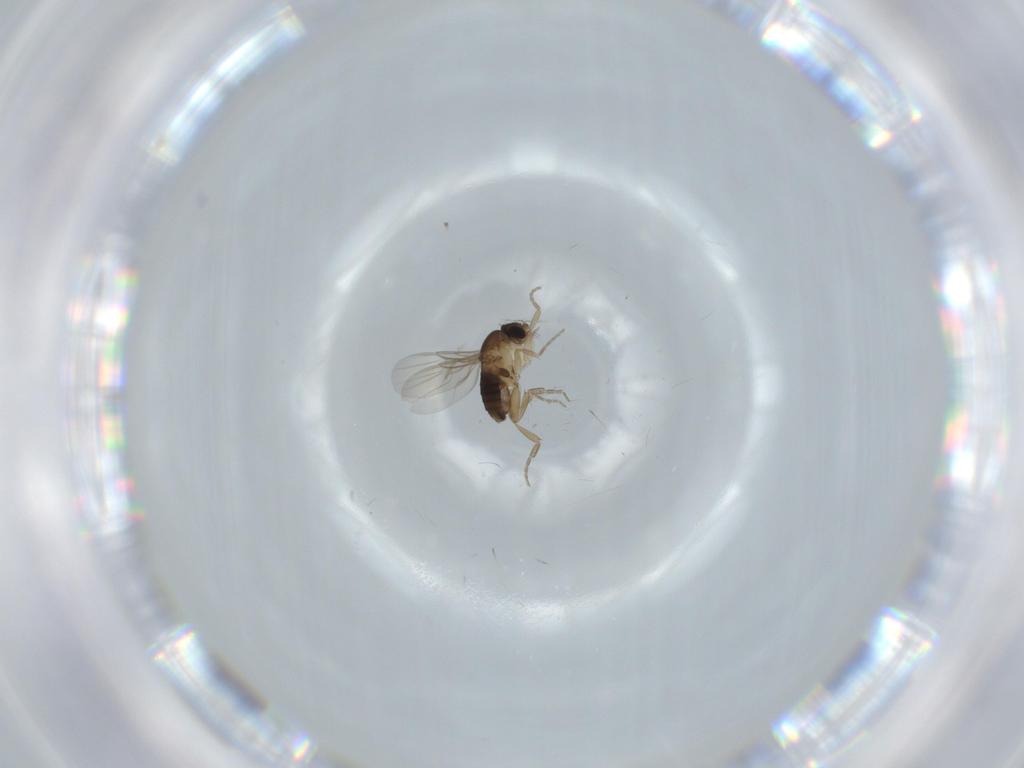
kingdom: Animalia
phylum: Arthropoda
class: Insecta
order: Diptera
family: Phoridae
